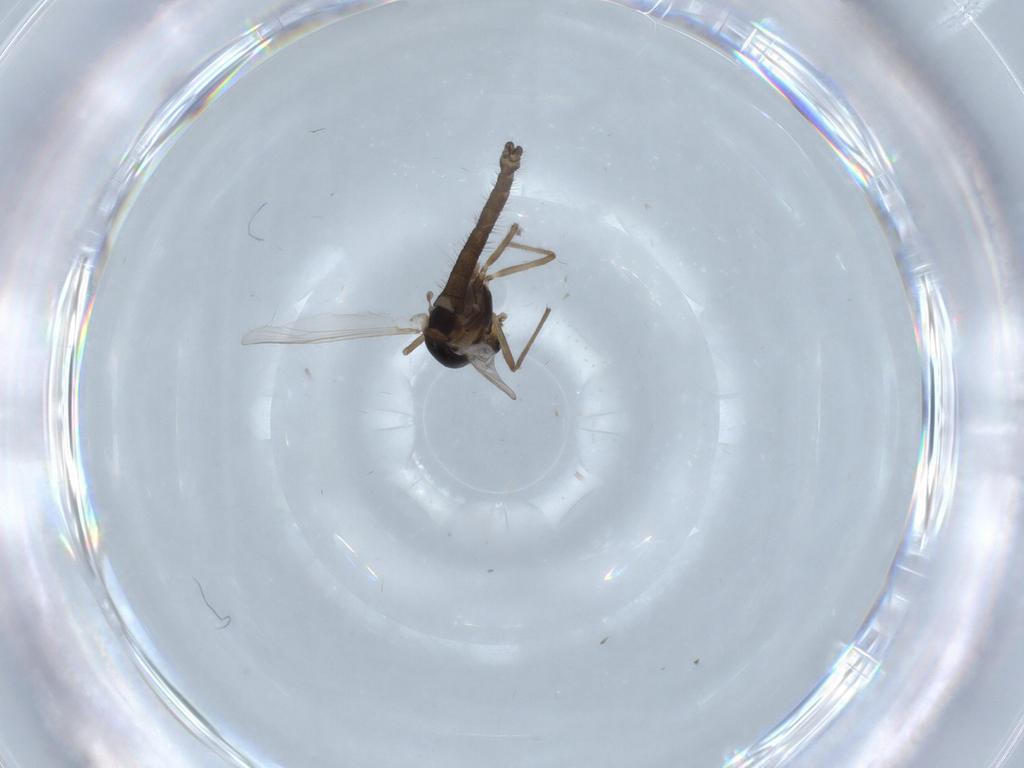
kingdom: Animalia
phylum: Arthropoda
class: Insecta
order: Diptera
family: Chironomidae
